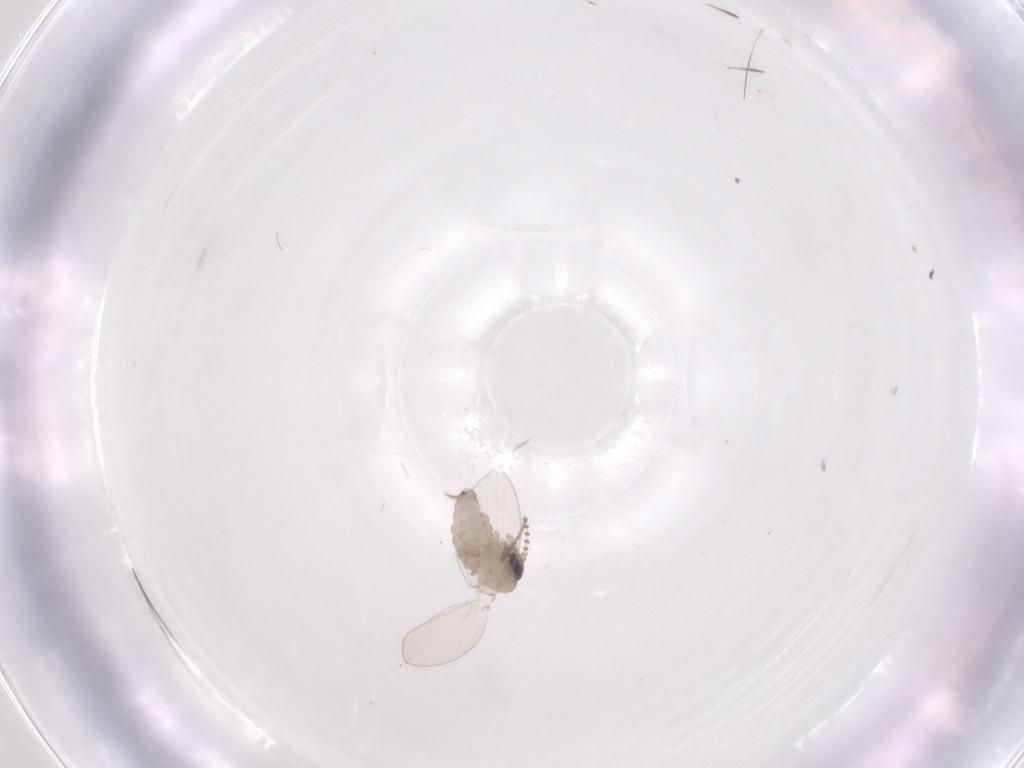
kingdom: Animalia
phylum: Arthropoda
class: Insecta
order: Diptera
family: Psychodidae
